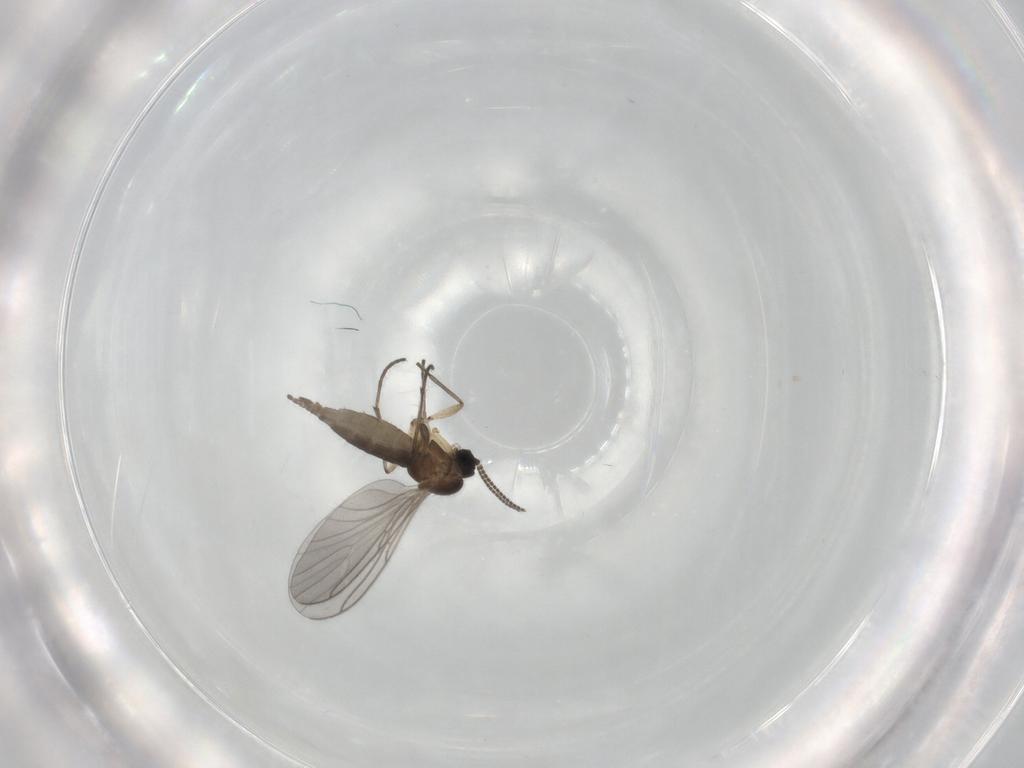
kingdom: Animalia
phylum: Arthropoda
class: Insecta
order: Diptera
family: Sciaridae
